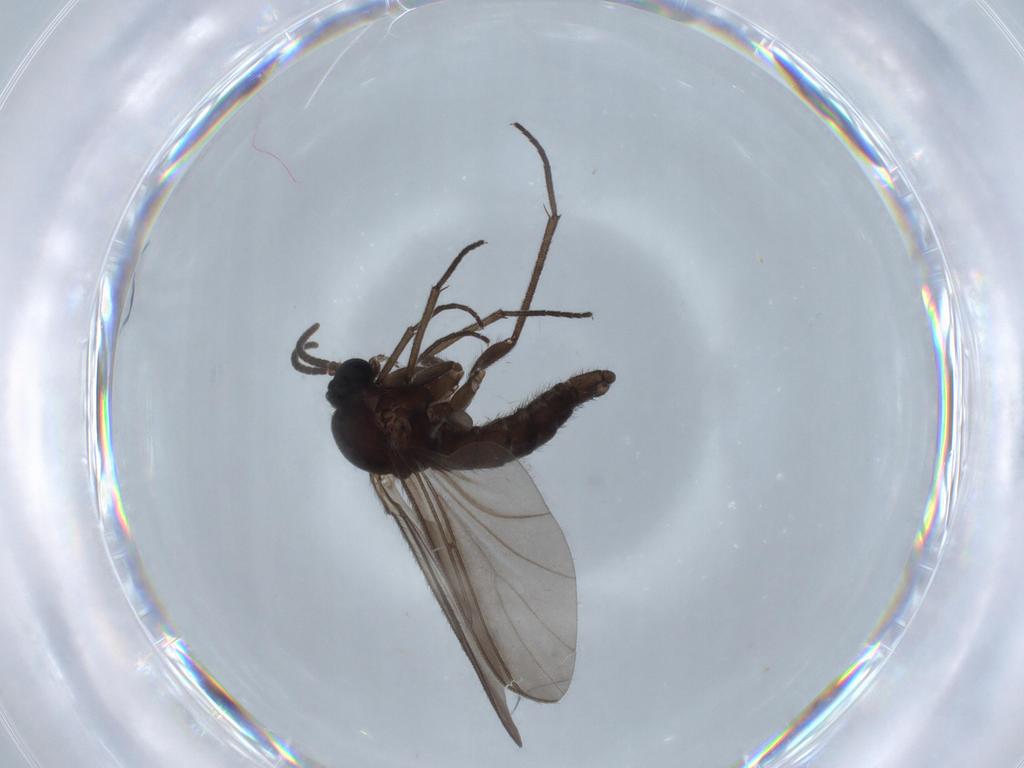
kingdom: Animalia
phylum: Arthropoda
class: Insecta
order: Diptera
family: Sciaridae
